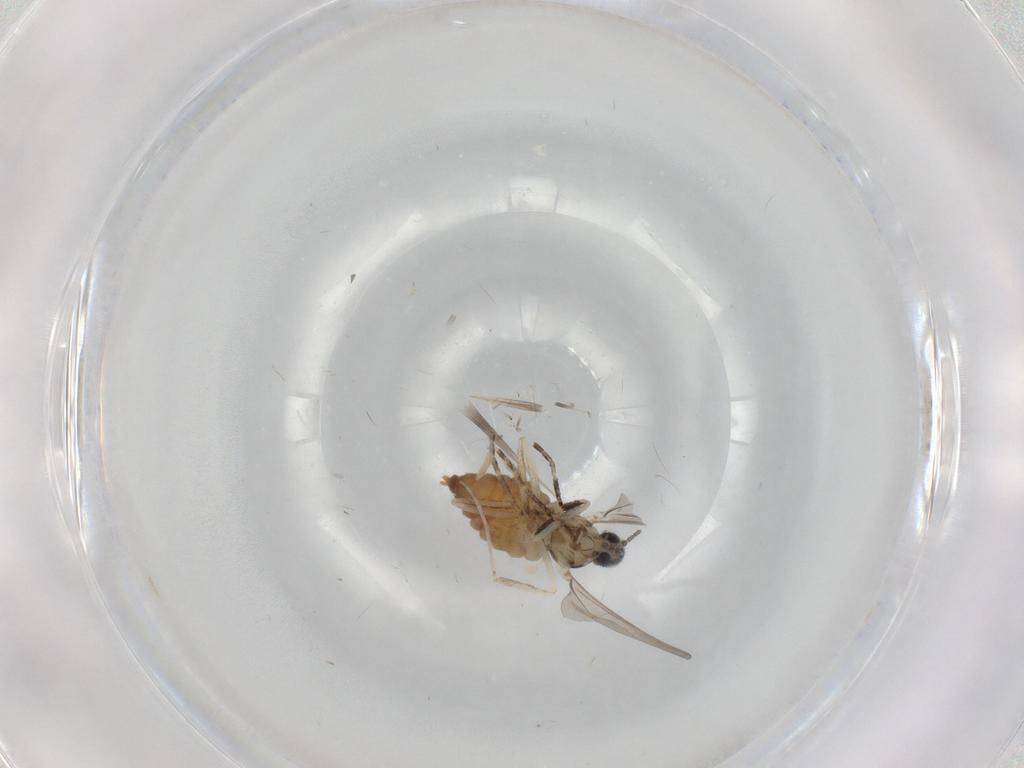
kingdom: Animalia
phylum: Arthropoda
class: Insecta
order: Diptera
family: Cecidomyiidae
